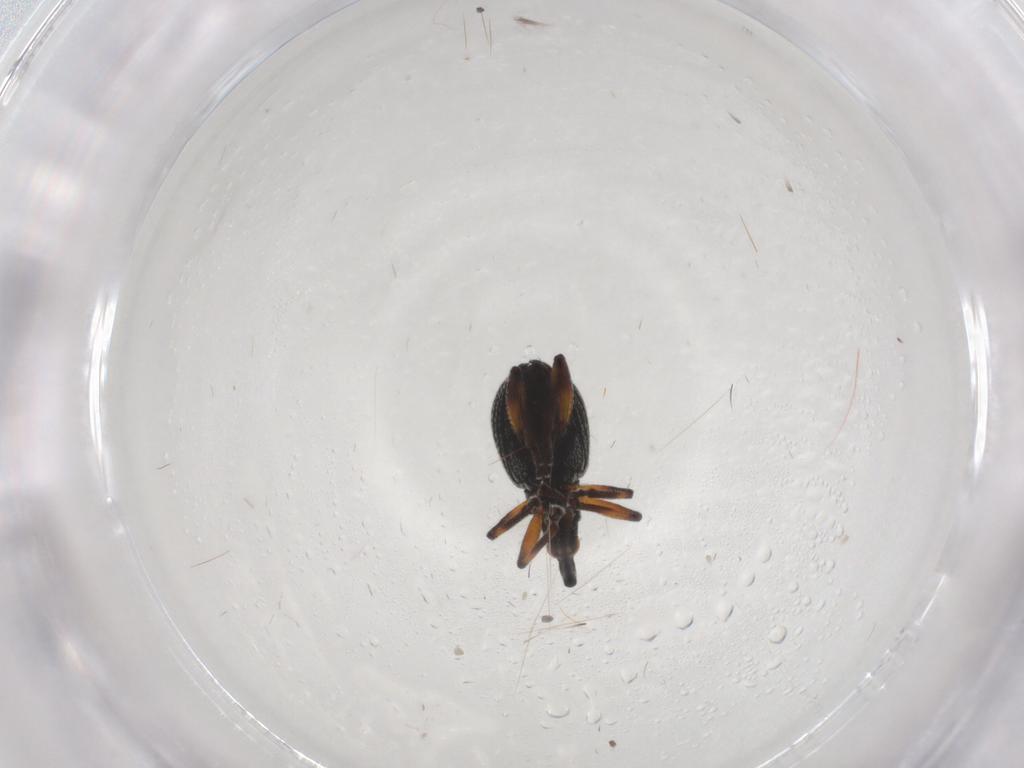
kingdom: Animalia
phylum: Arthropoda
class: Insecta
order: Coleoptera
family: Brentidae
